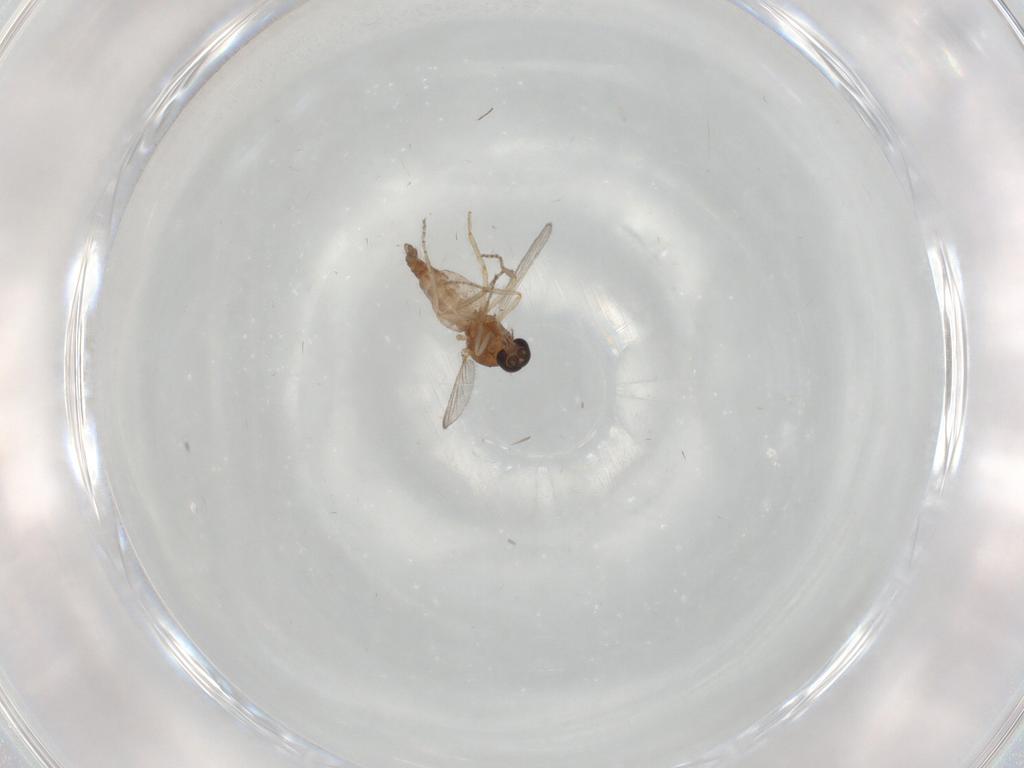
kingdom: Animalia
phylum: Arthropoda
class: Insecta
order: Diptera
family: Ceratopogonidae
